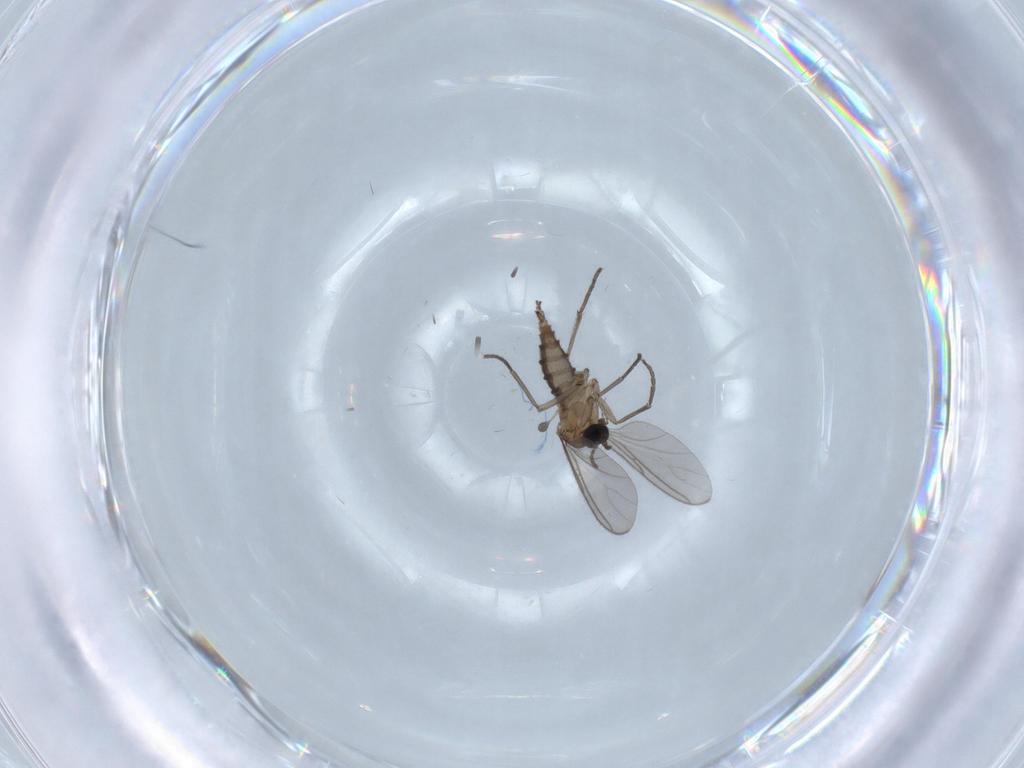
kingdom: Animalia
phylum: Arthropoda
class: Insecta
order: Diptera
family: Sciaridae
